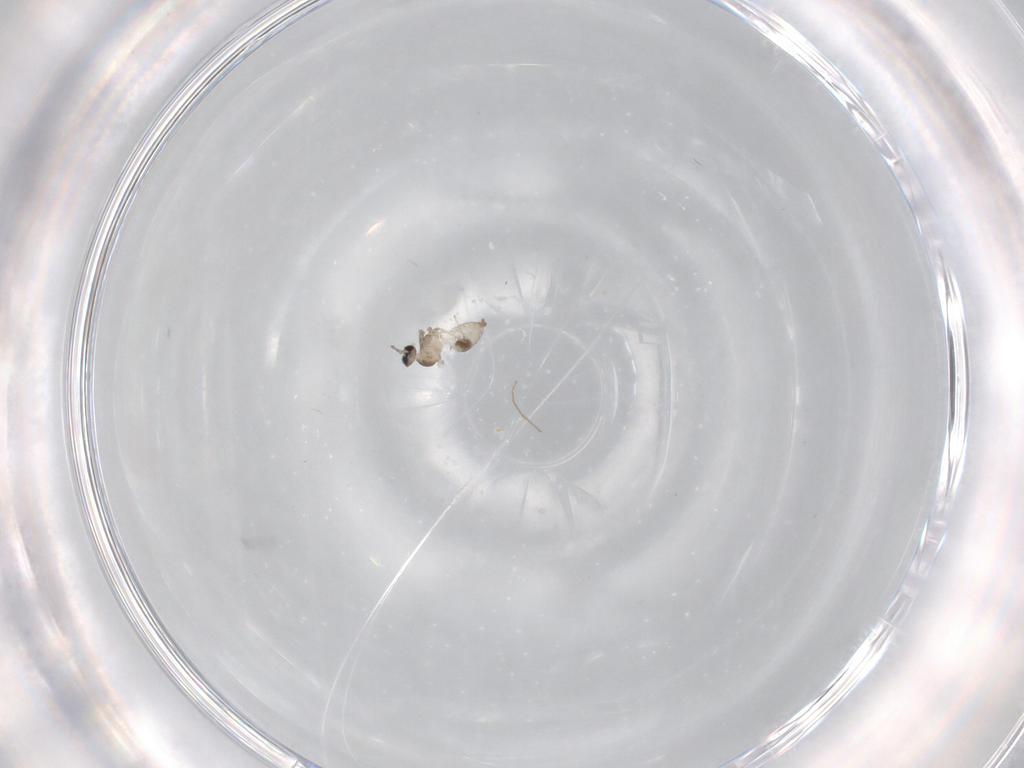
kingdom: Animalia
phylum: Arthropoda
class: Insecta
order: Diptera
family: Cecidomyiidae
